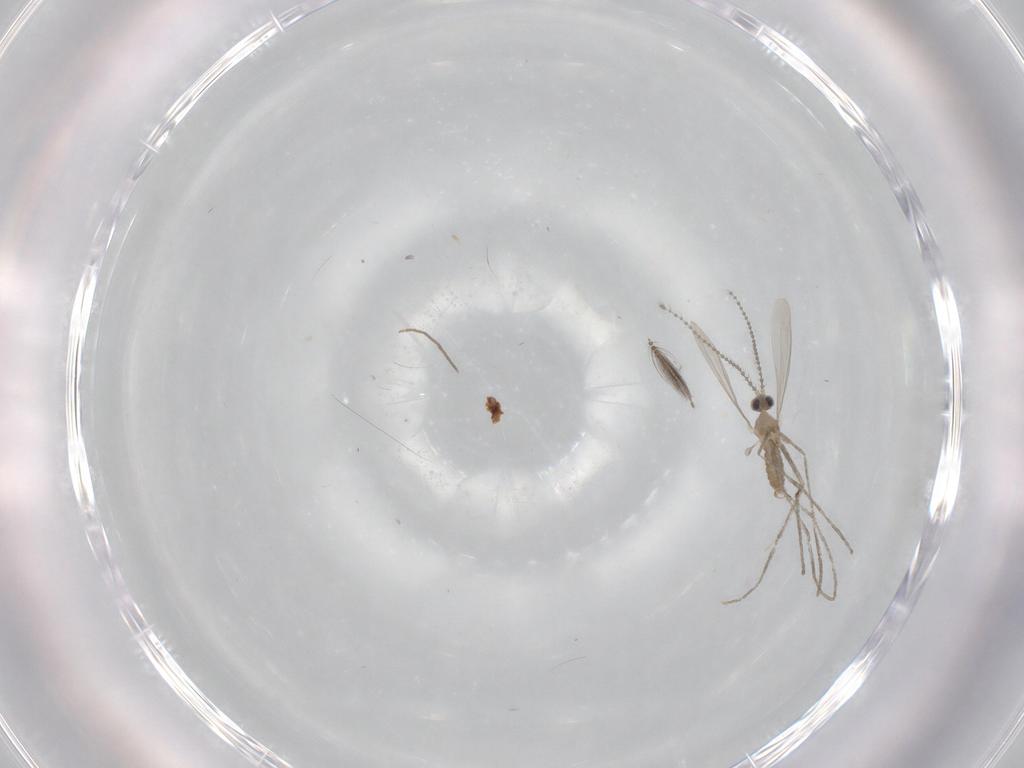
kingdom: Animalia
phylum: Arthropoda
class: Insecta
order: Diptera
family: Cecidomyiidae
